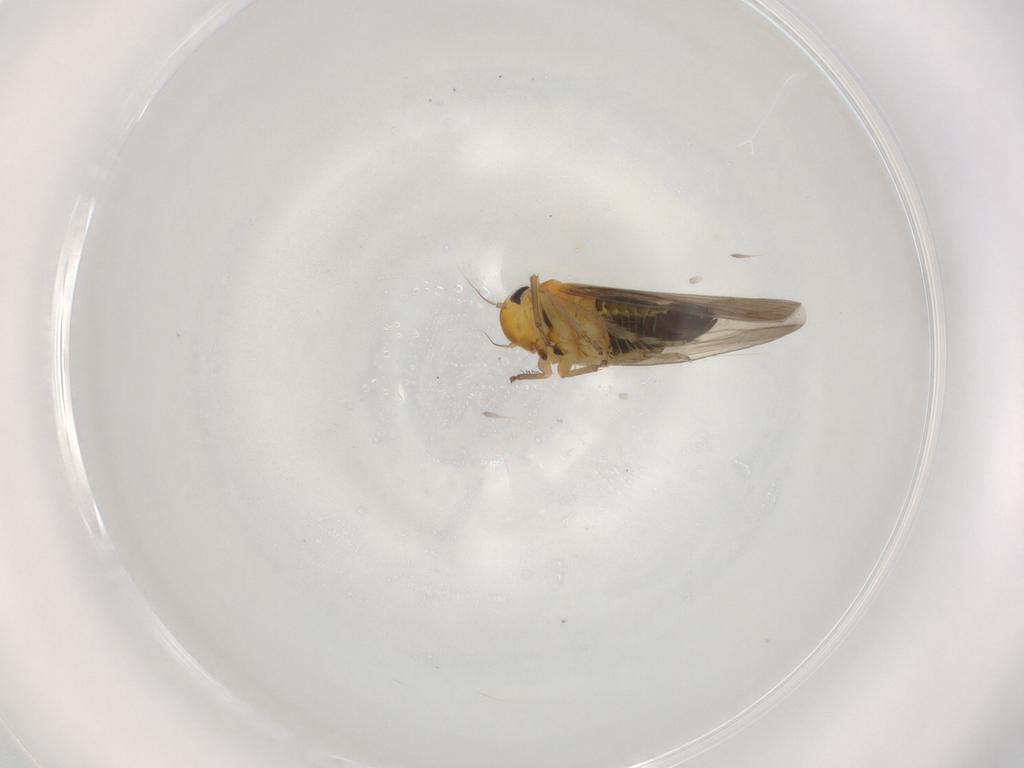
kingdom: Animalia
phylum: Arthropoda
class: Insecta
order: Hemiptera
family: Cicadellidae
